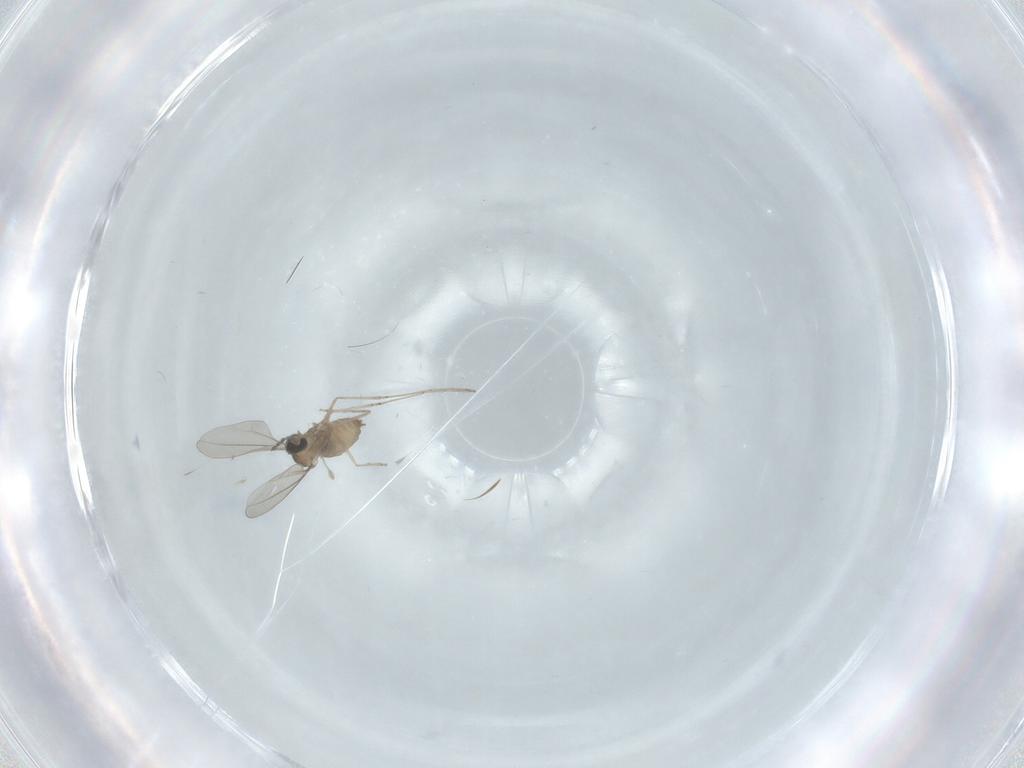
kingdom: Animalia
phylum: Arthropoda
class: Insecta
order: Diptera
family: Cecidomyiidae
